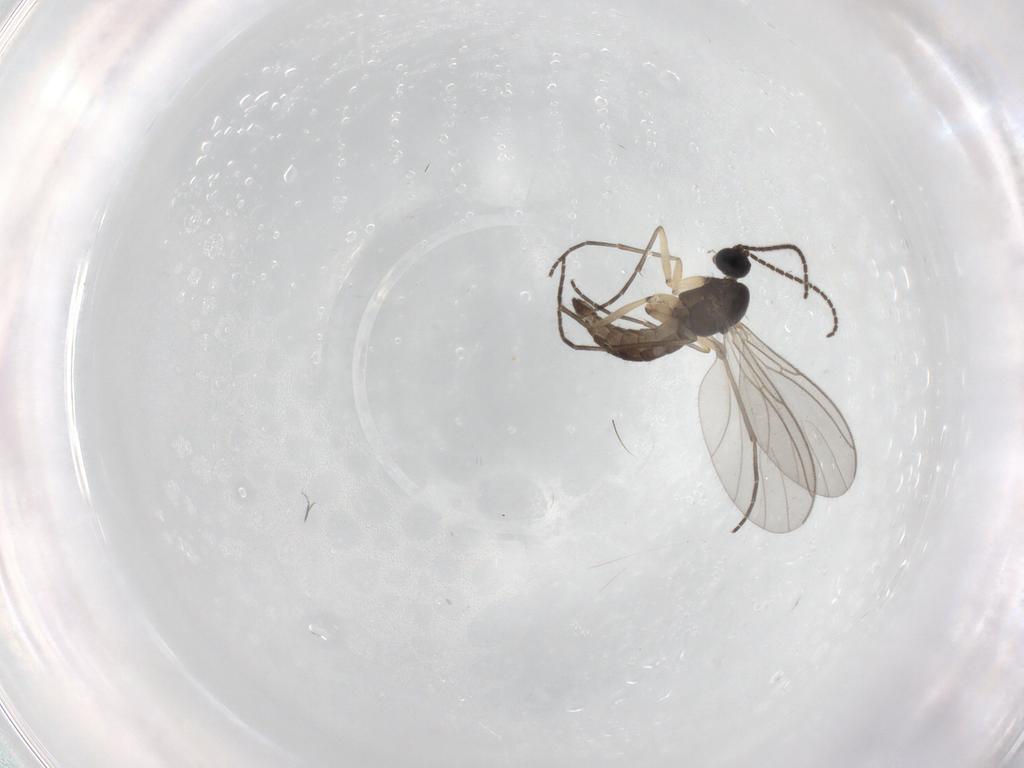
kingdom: Animalia
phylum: Arthropoda
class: Insecta
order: Diptera
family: Sciaridae
